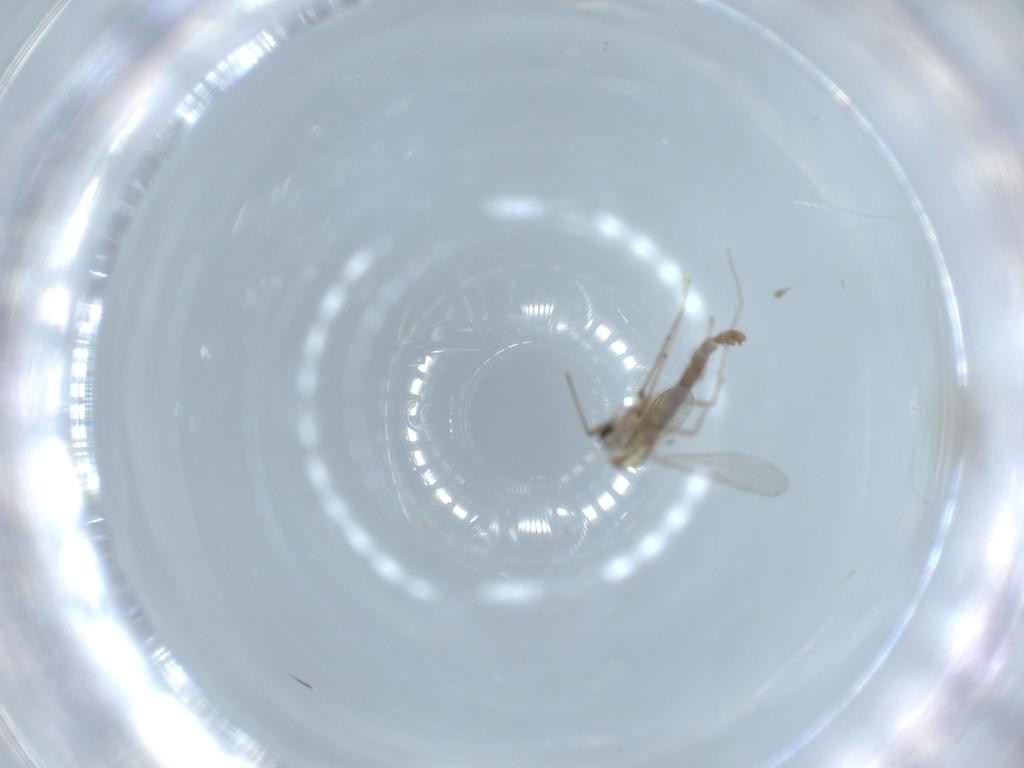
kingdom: Animalia
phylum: Arthropoda
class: Insecta
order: Diptera
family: Chironomidae
